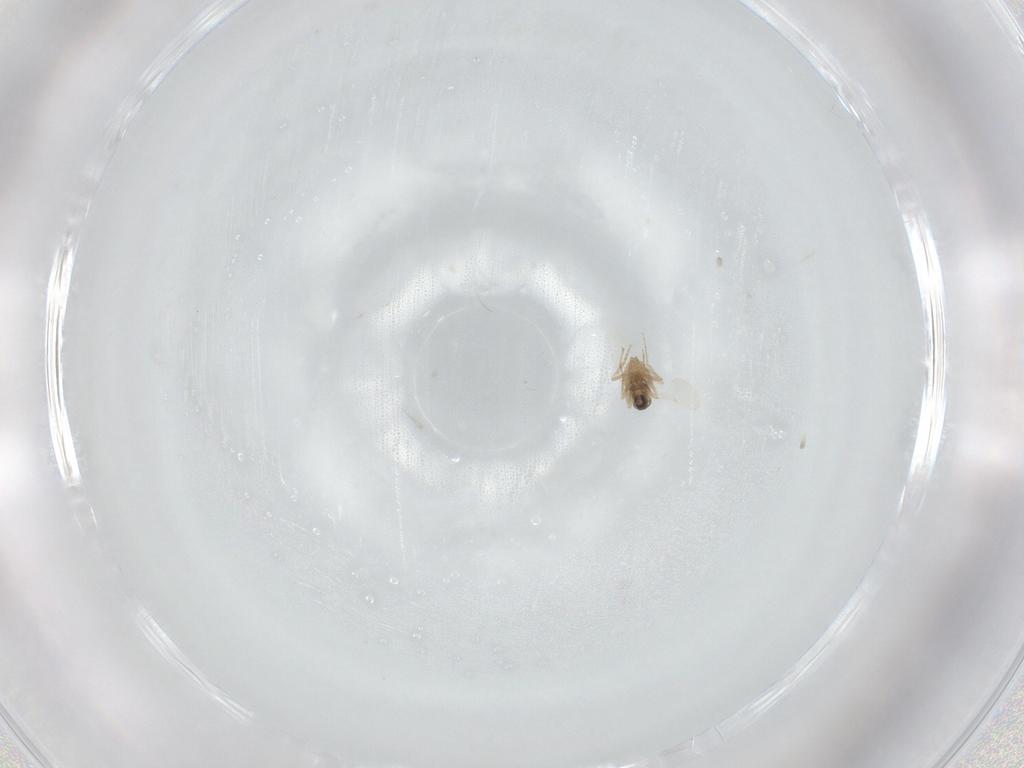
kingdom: Animalia
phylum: Arthropoda
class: Insecta
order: Diptera
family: Cecidomyiidae
